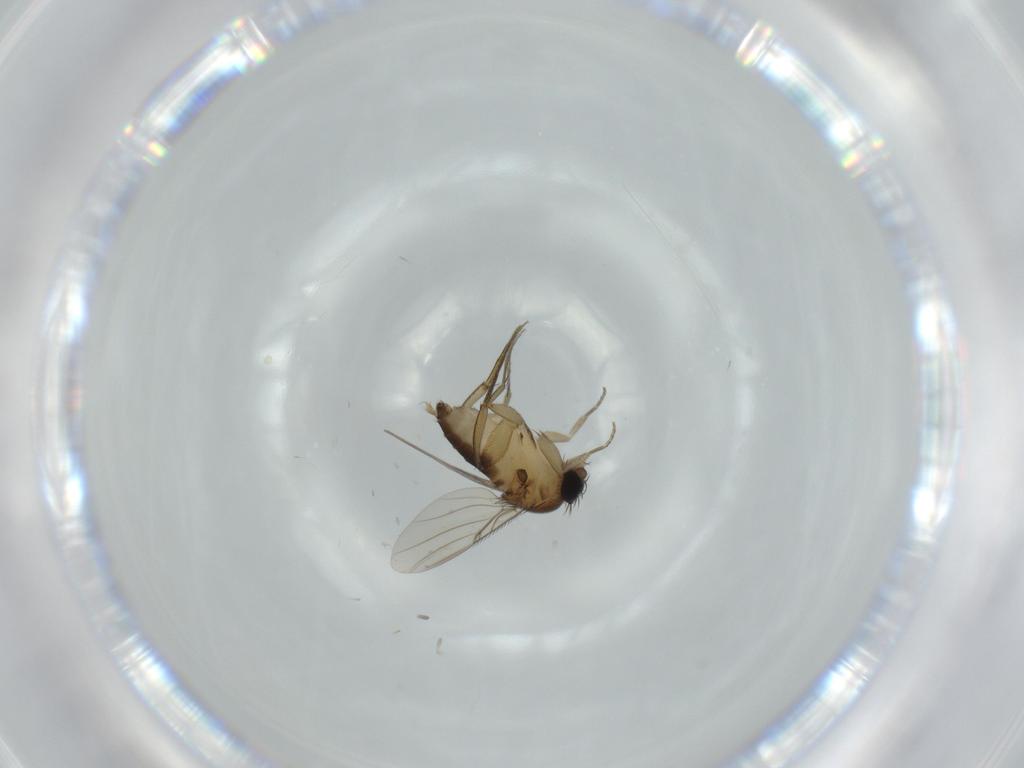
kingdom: Animalia
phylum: Arthropoda
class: Insecta
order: Diptera
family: Phoridae
